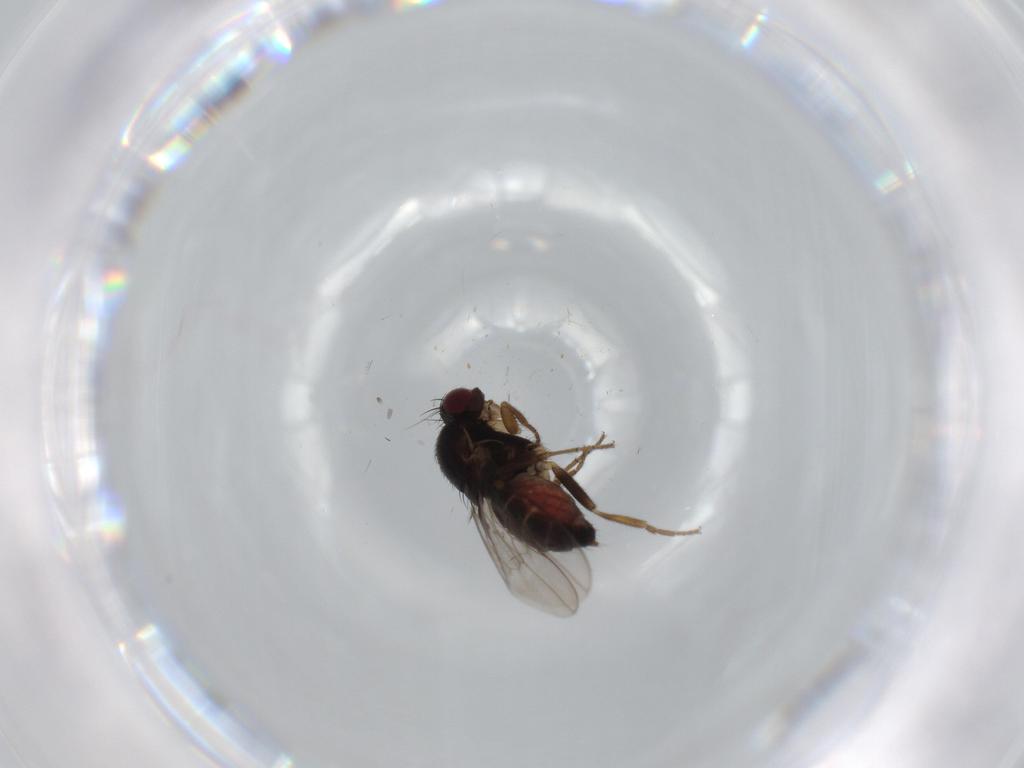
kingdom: Animalia
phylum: Arthropoda
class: Insecta
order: Diptera
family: Sphaeroceridae
